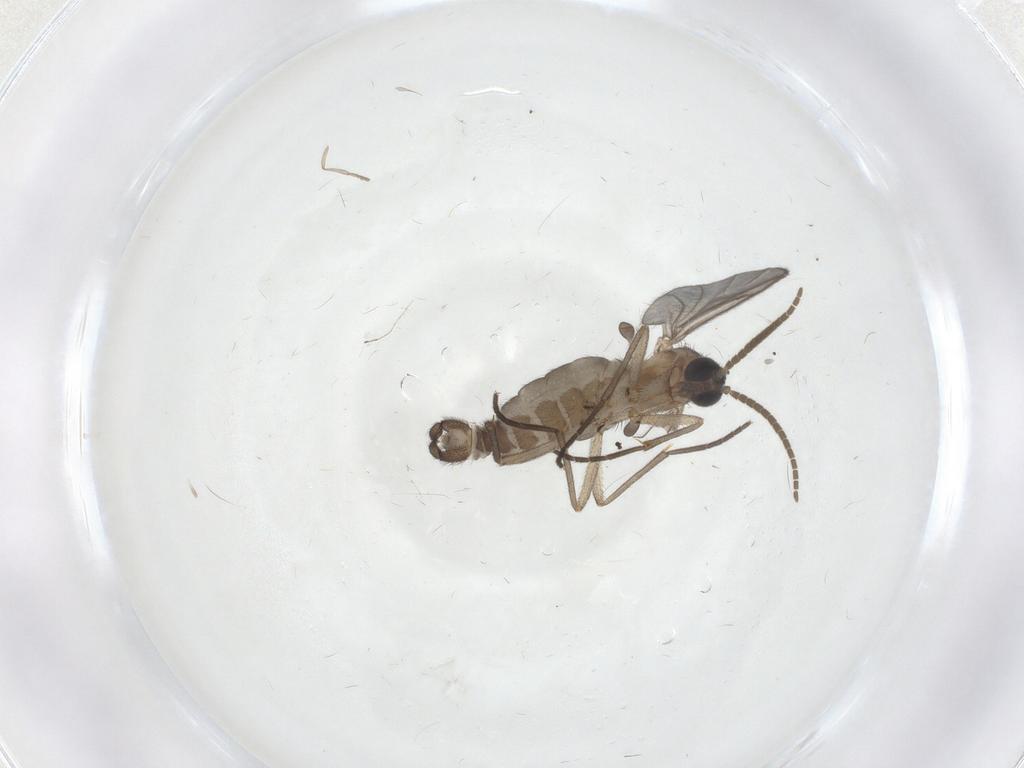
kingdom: Animalia
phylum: Arthropoda
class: Insecta
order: Diptera
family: Psychodidae
